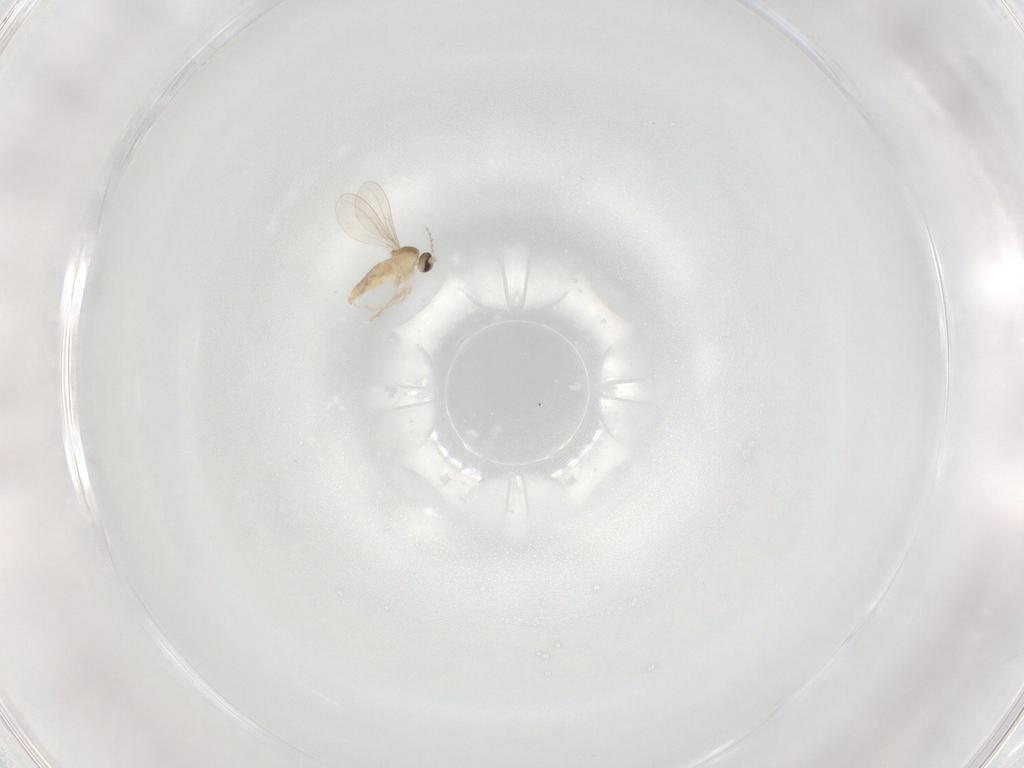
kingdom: Animalia
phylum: Arthropoda
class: Insecta
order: Diptera
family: Cecidomyiidae
